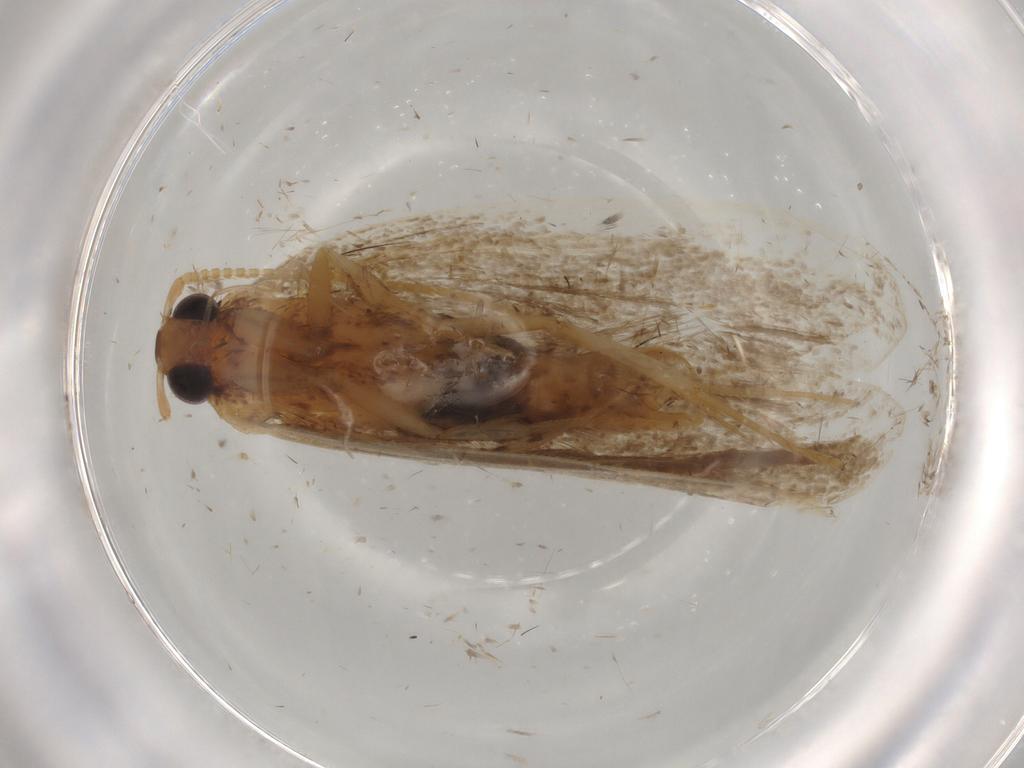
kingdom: Animalia
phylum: Arthropoda
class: Insecta
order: Lepidoptera
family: Lecithoceridae
